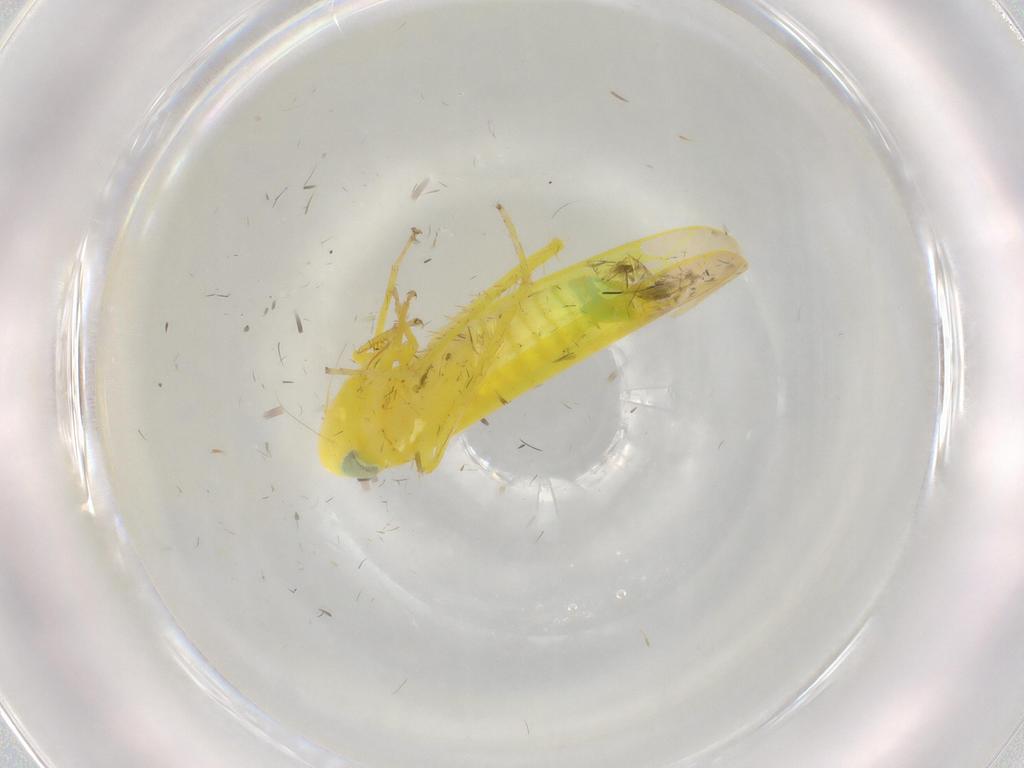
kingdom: Animalia
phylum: Arthropoda
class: Insecta
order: Hemiptera
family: Cicadellidae
